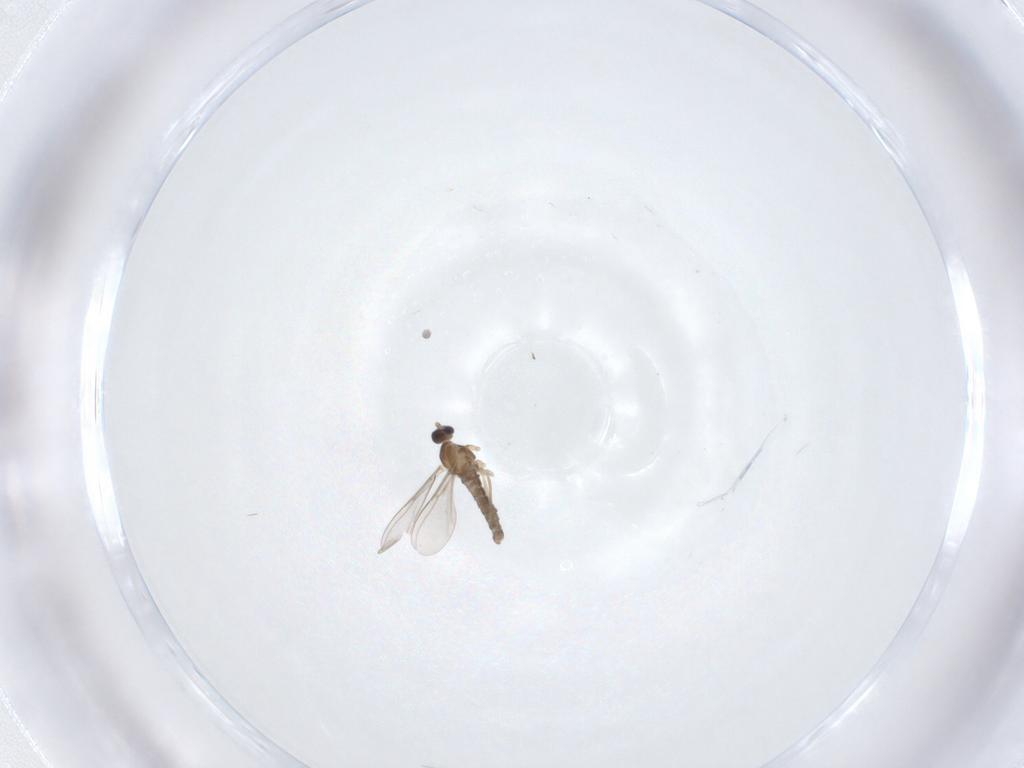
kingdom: Animalia
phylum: Arthropoda
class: Insecta
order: Diptera
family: Cecidomyiidae
